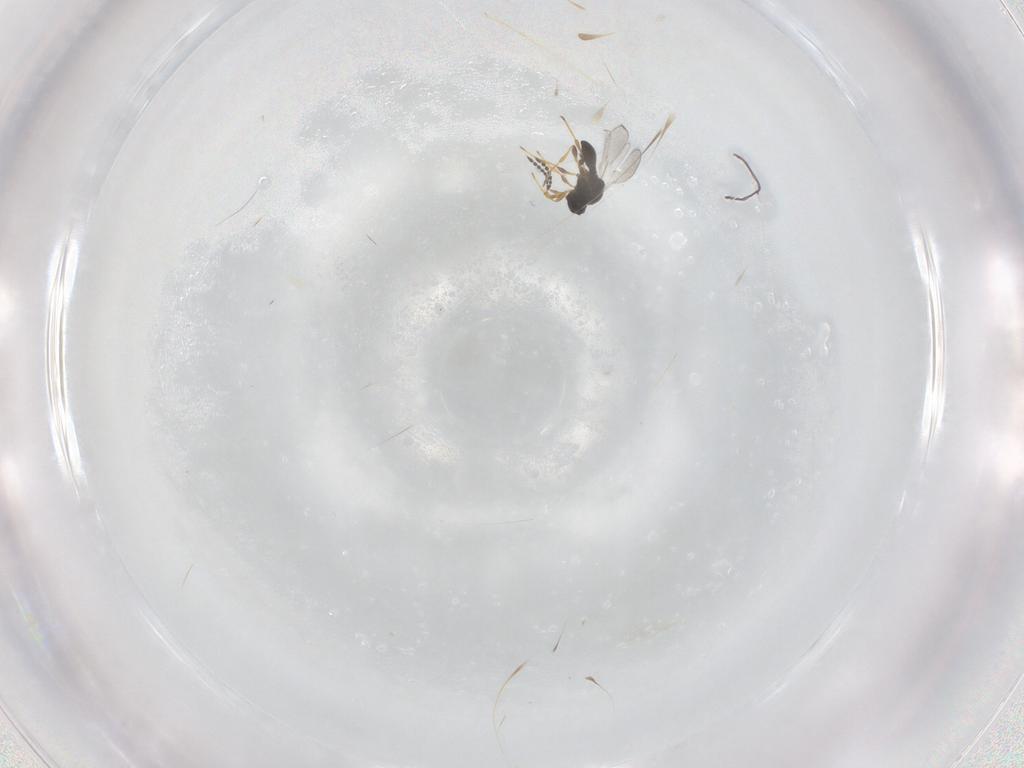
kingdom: Animalia
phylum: Arthropoda
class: Insecta
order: Hymenoptera
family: Platygastridae
